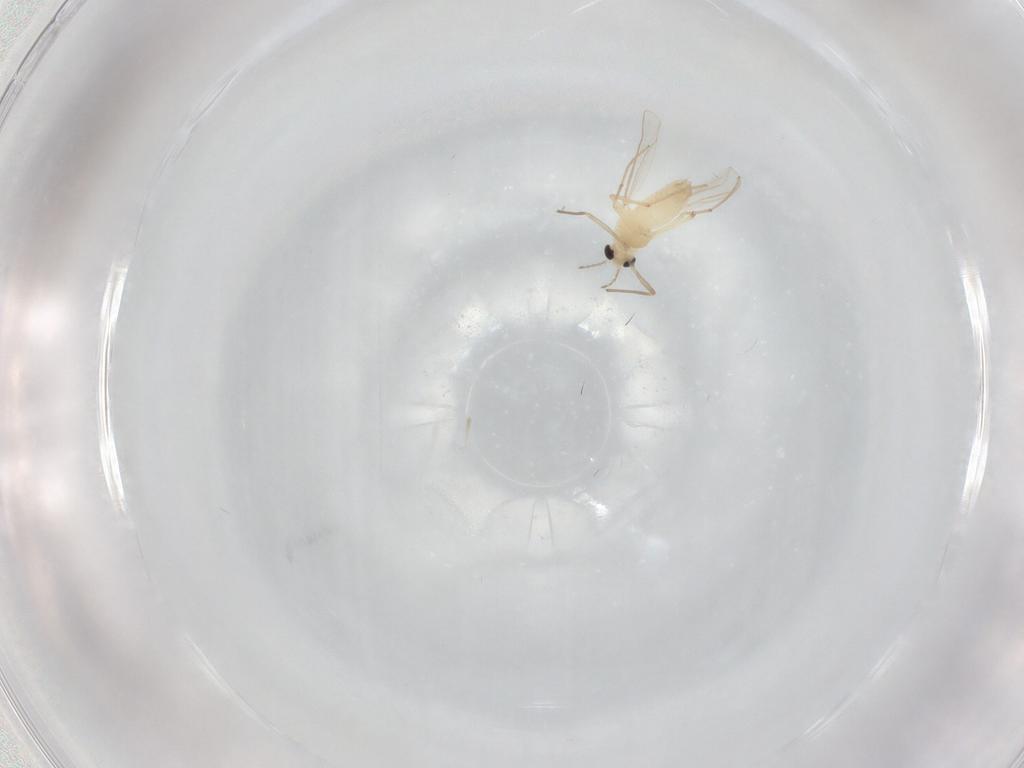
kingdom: Animalia
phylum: Arthropoda
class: Insecta
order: Diptera
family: Chironomidae
